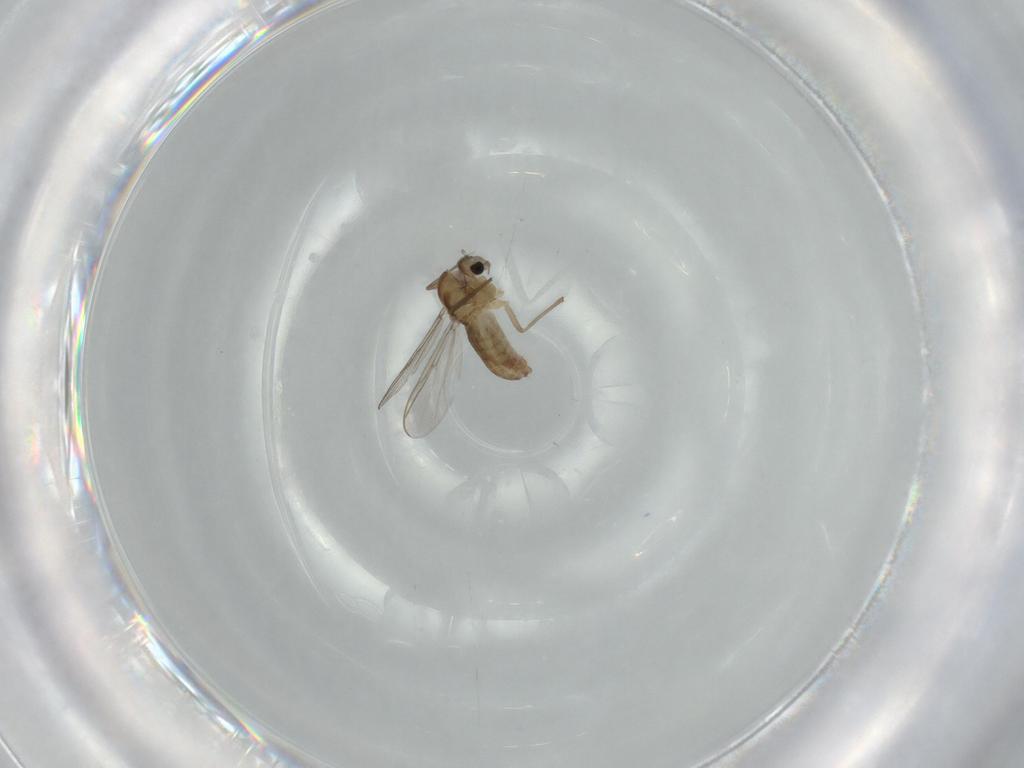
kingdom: Animalia
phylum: Arthropoda
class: Insecta
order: Diptera
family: Chironomidae
